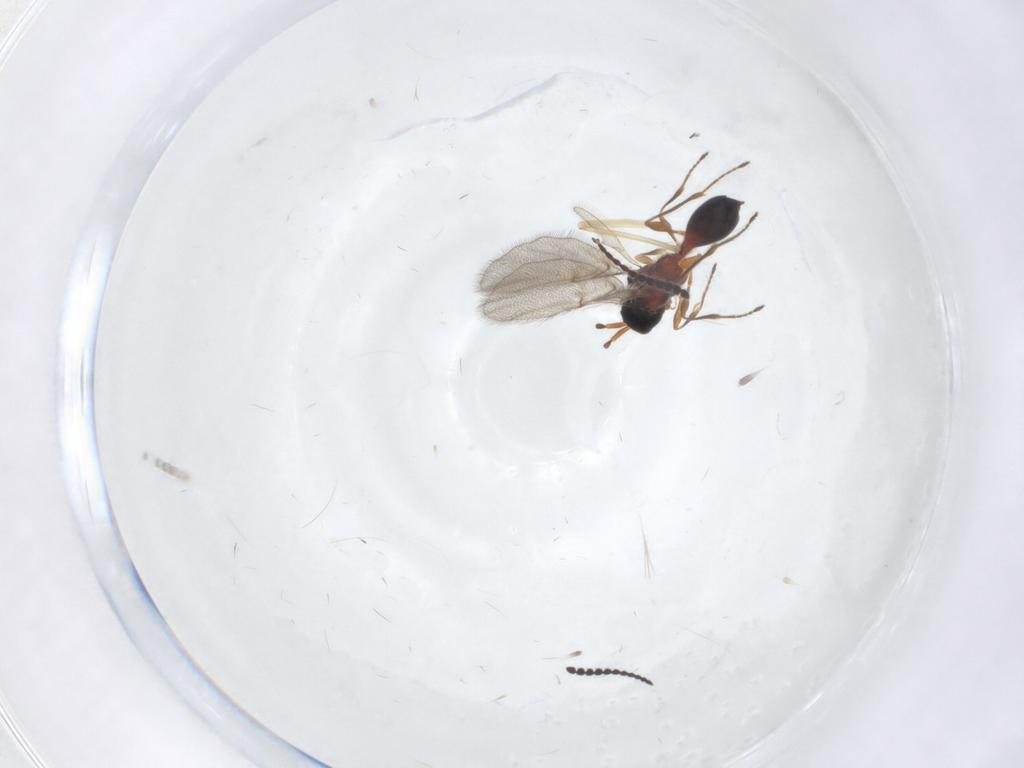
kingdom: Animalia
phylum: Arthropoda
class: Insecta
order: Hymenoptera
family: Diapriidae
